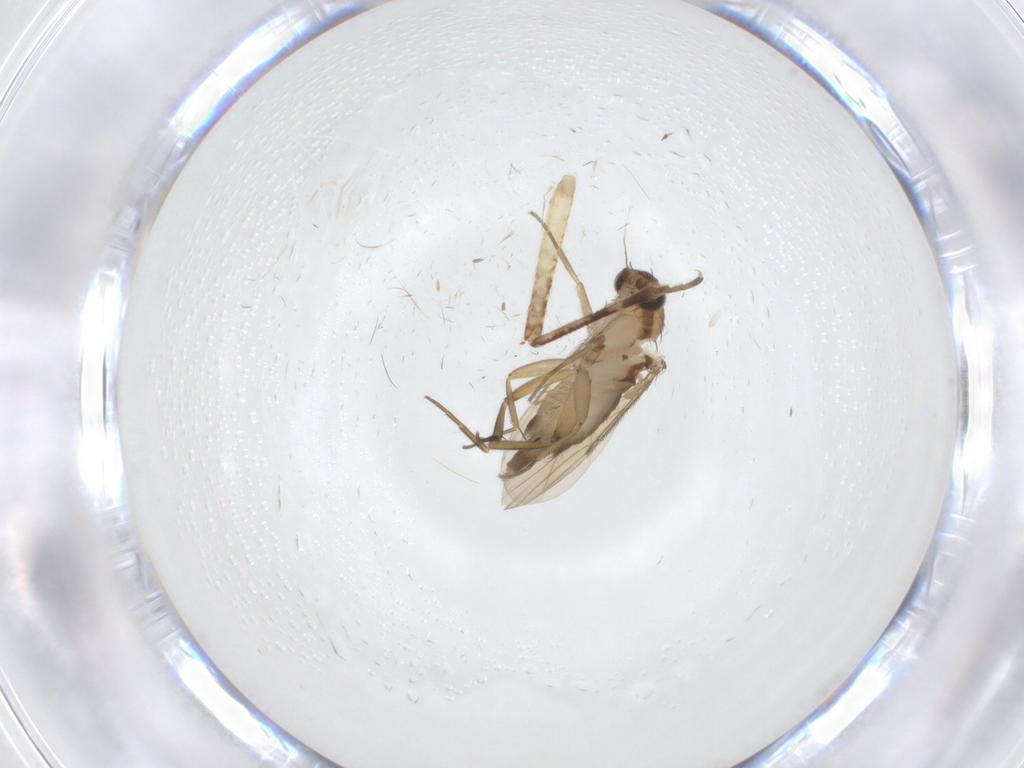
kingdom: Animalia
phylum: Arthropoda
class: Insecta
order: Diptera
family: Phoridae
